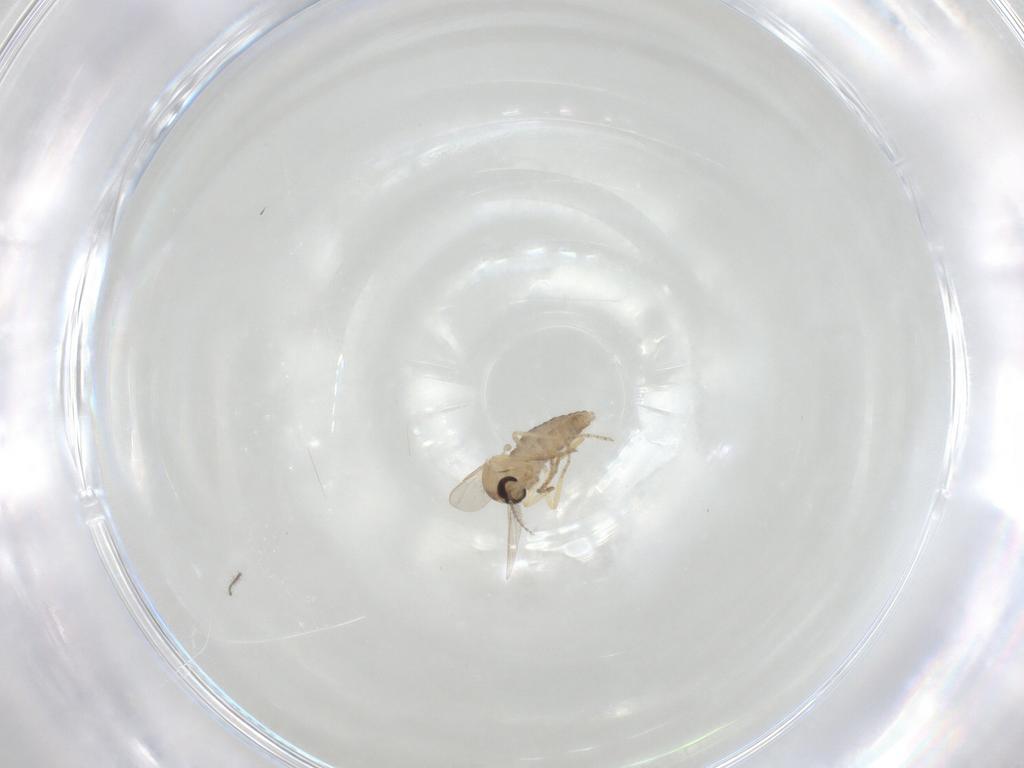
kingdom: Animalia
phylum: Arthropoda
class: Insecta
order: Diptera
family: Ceratopogonidae
